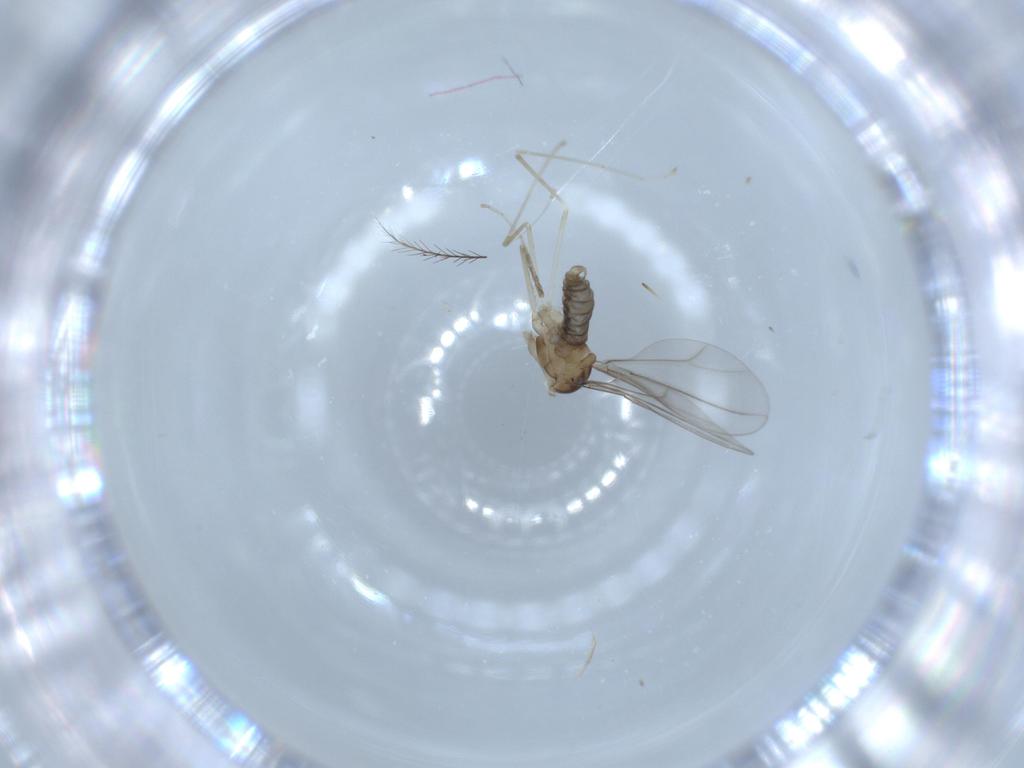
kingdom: Animalia
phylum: Arthropoda
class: Insecta
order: Diptera
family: Cecidomyiidae
